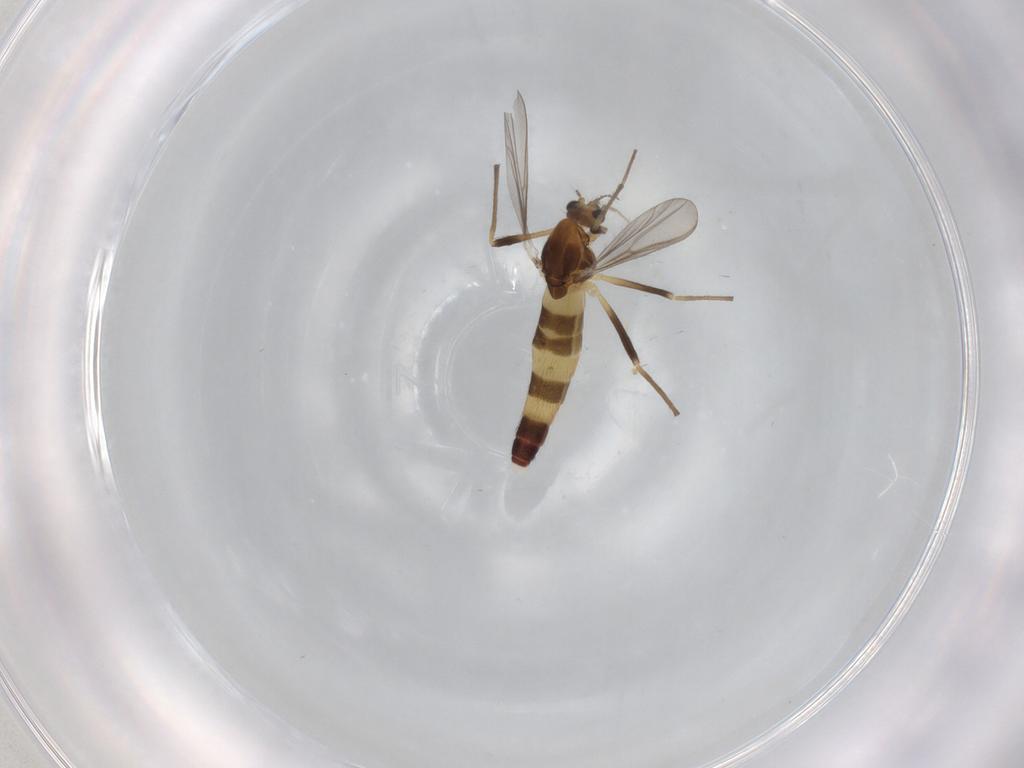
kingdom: Animalia
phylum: Arthropoda
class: Insecta
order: Diptera
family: Chironomidae
